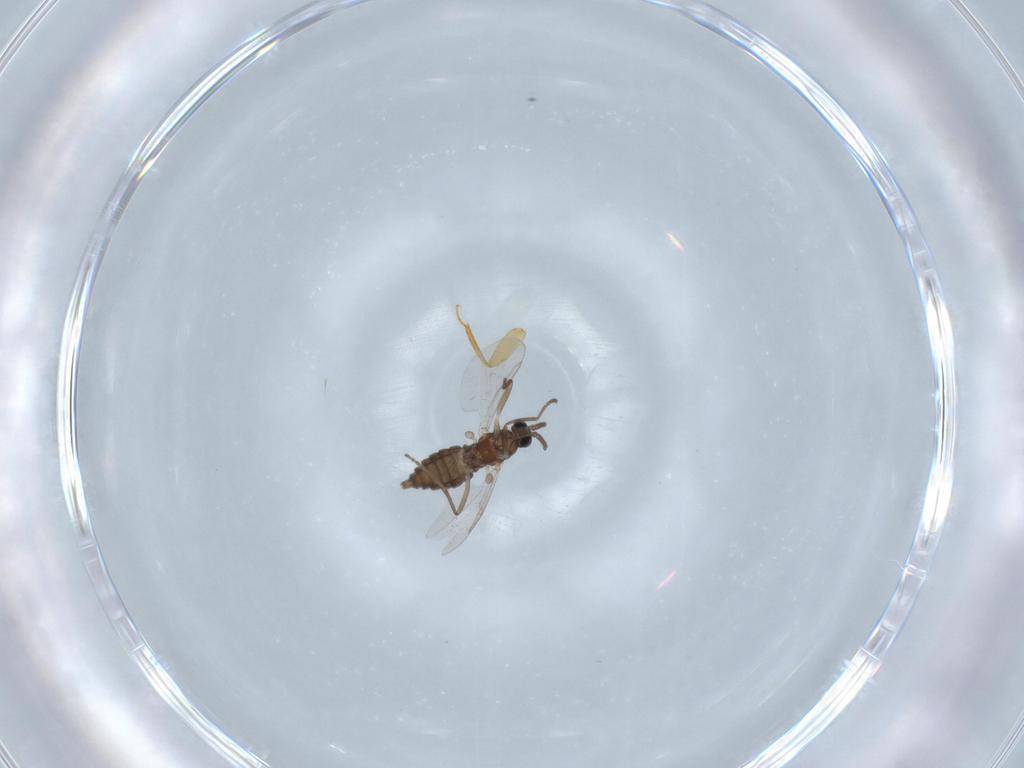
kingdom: Animalia
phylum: Arthropoda
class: Insecta
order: Diptera
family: Cecidomyiidae
